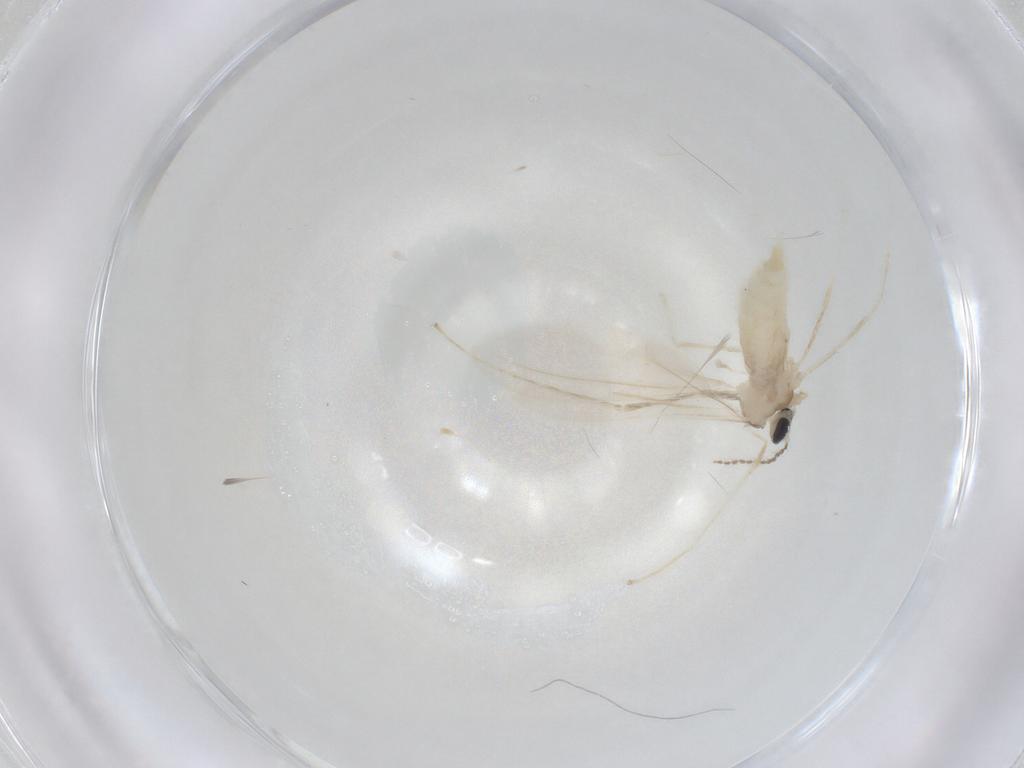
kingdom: Animalia
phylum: Arthropoda
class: Insecta
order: Diptera
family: Cecidomyiidae
